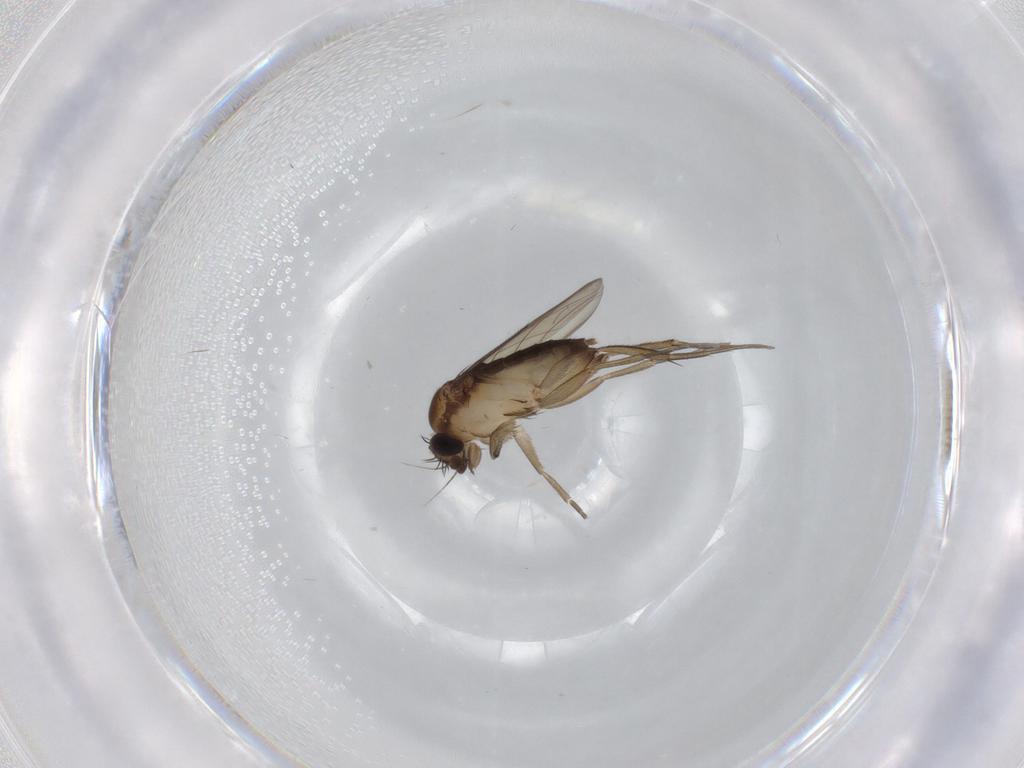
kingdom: Animalia
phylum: Arthropoda
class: Insecta
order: Diptera
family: Phoridae
